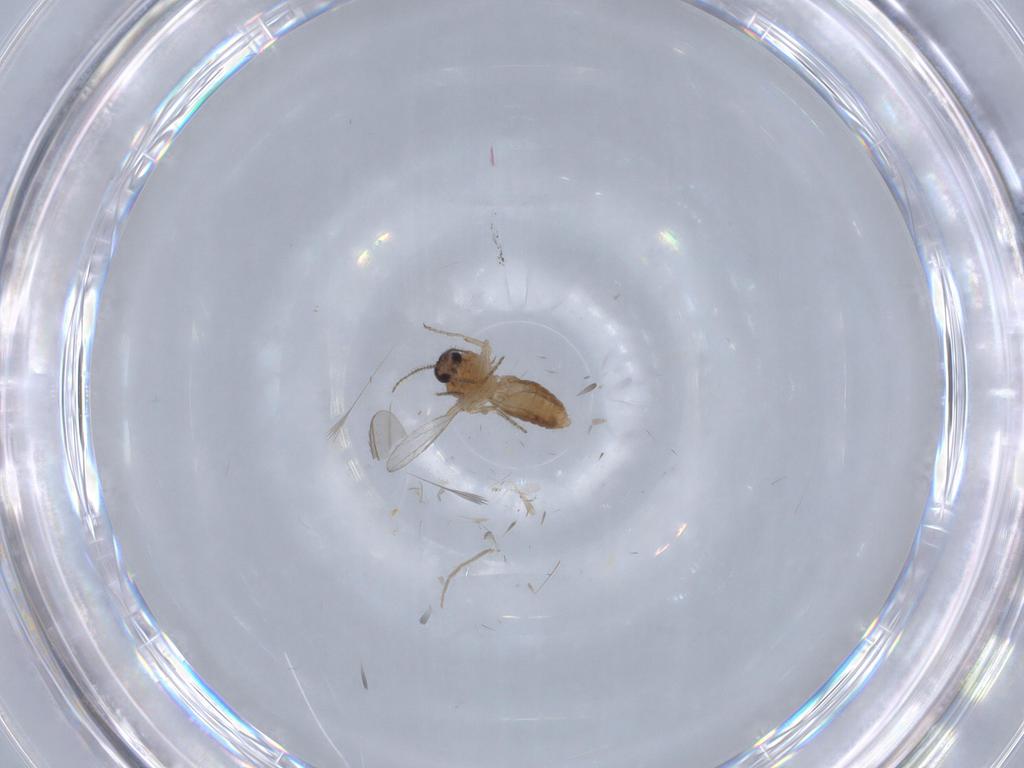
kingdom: Animalia
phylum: Arthropoda
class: Insecta
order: Diptera
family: Ceratopogonidae
